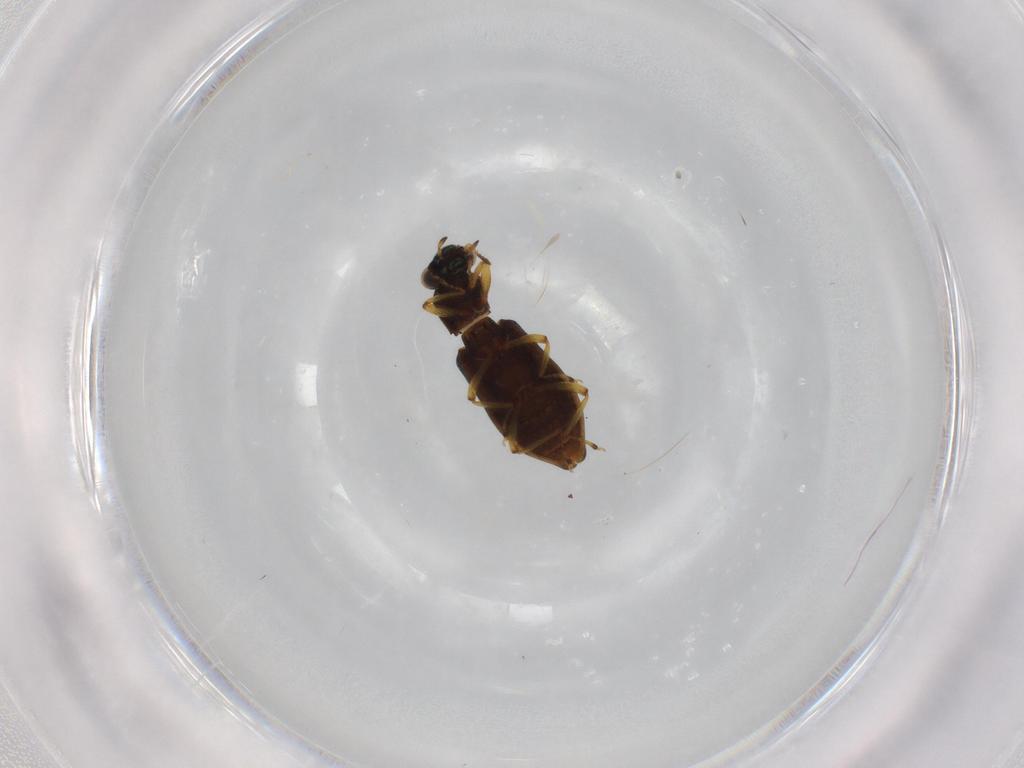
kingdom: Animalia
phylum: Arthropoda
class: Insecta
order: Coleoptera
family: Hydrophilidae
